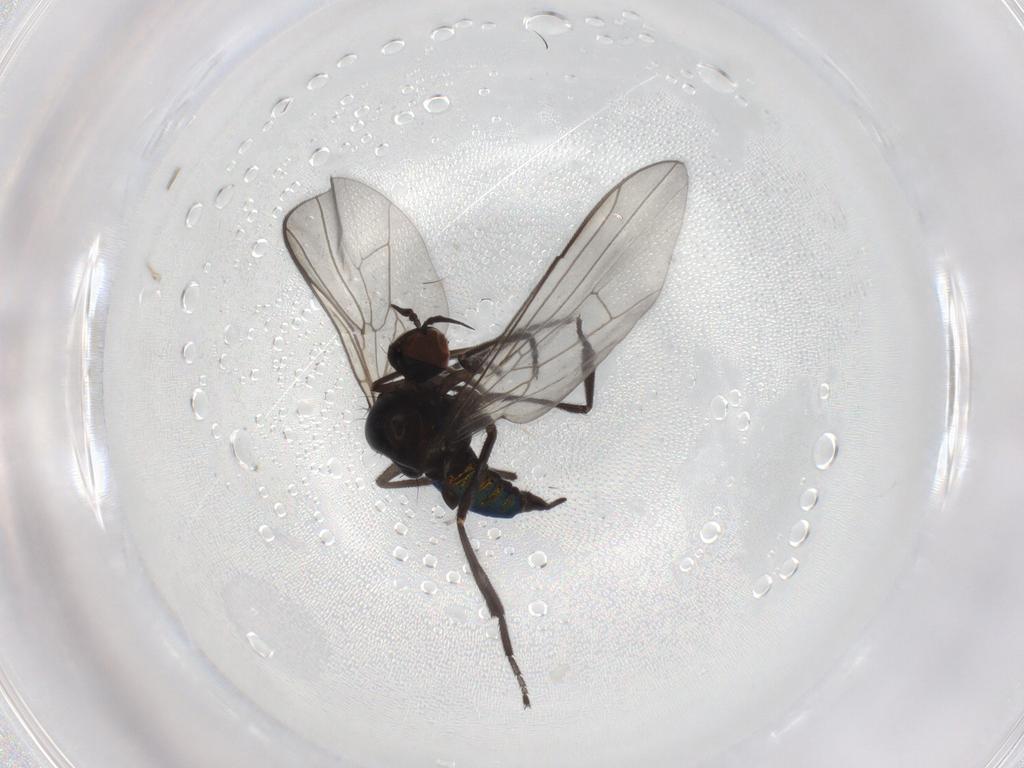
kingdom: Animalia
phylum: Arthropoda
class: Insecta
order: Diptera
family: Empididae
